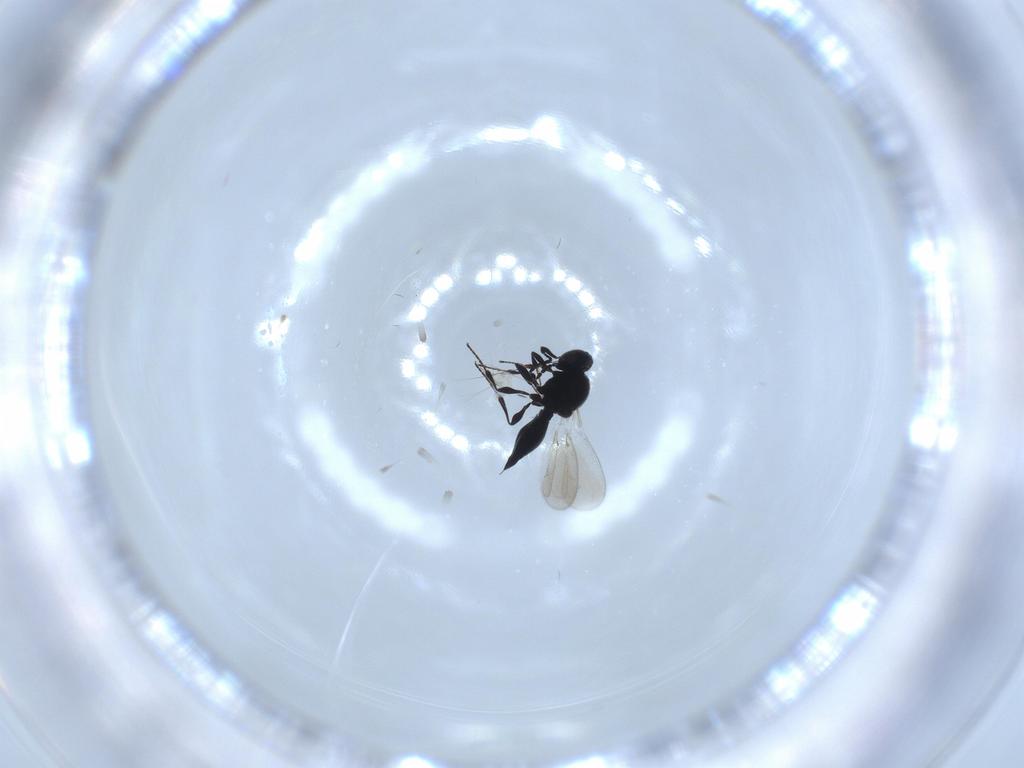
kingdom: Animalia
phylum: Arthropoda
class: Insecta
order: Hymenoptera
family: Platygastridae
